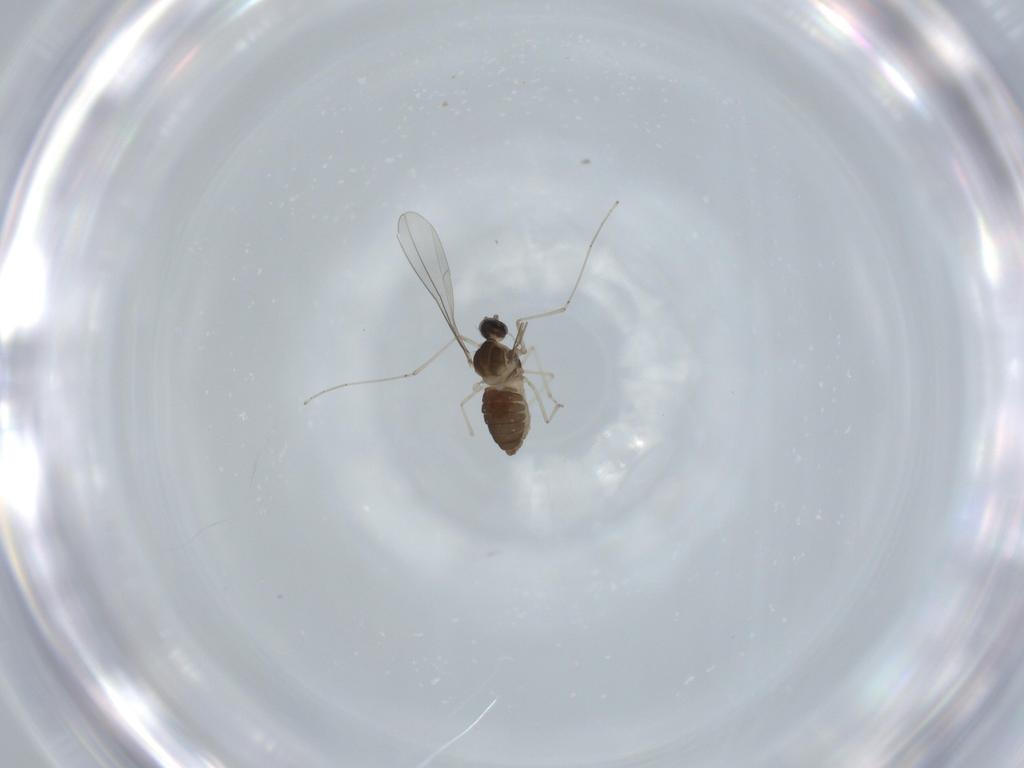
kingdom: Animalia
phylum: Arthropoda
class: Insecta
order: Diptera
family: Cecidomyiidae
